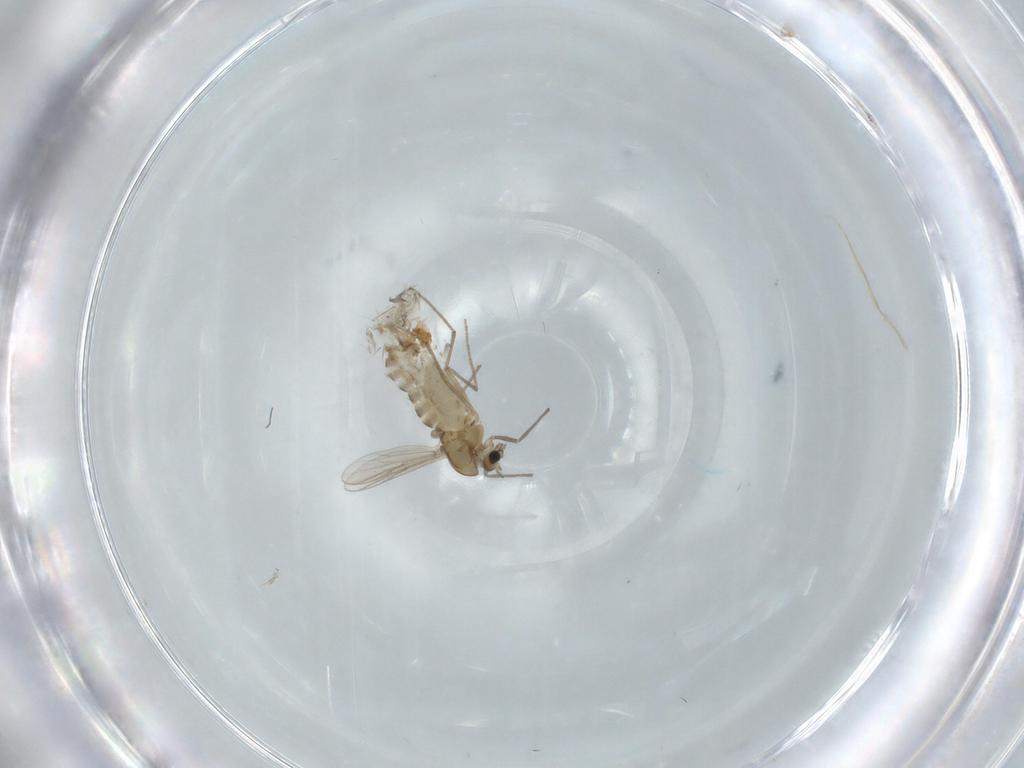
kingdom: Animalia
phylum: Arthropoda
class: Insecta
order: Diptera
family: Chironomidae
